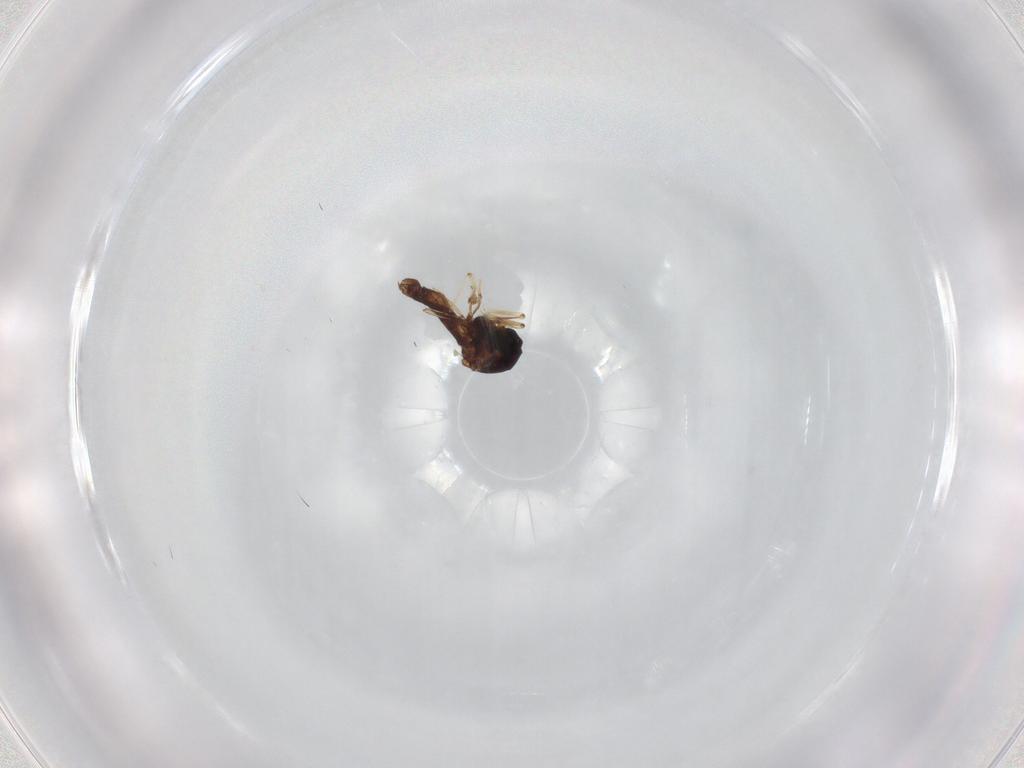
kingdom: Animalia
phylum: Arthropoda
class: Insecta
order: Diptera
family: Ceratopogonidae
